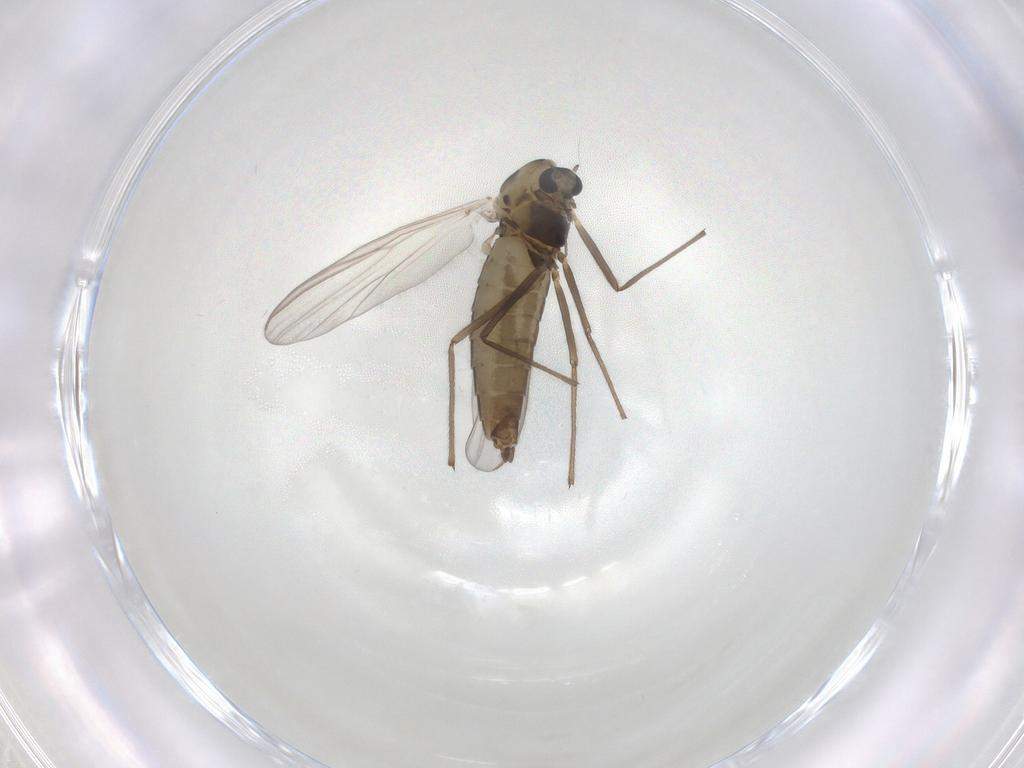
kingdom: Animalia
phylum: Arthropoda
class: Insecta
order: Diptera
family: Chironomidae
